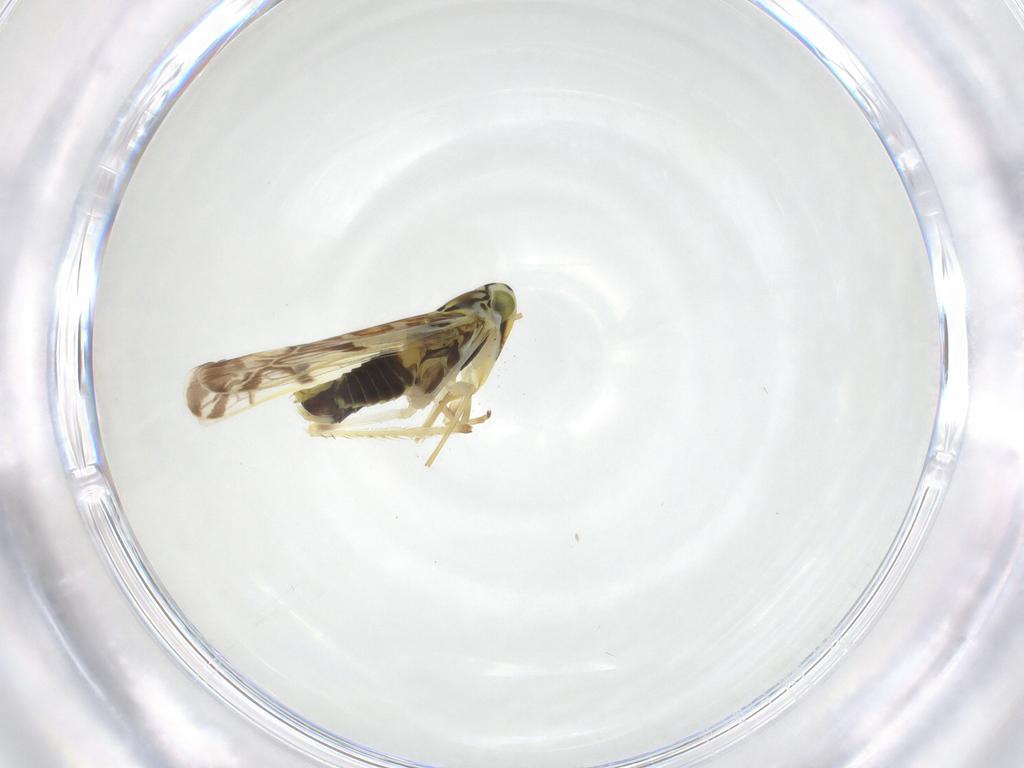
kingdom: Animalia
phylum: Arthropoda
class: Insecta
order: Hemiptera
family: Cicadellidae
